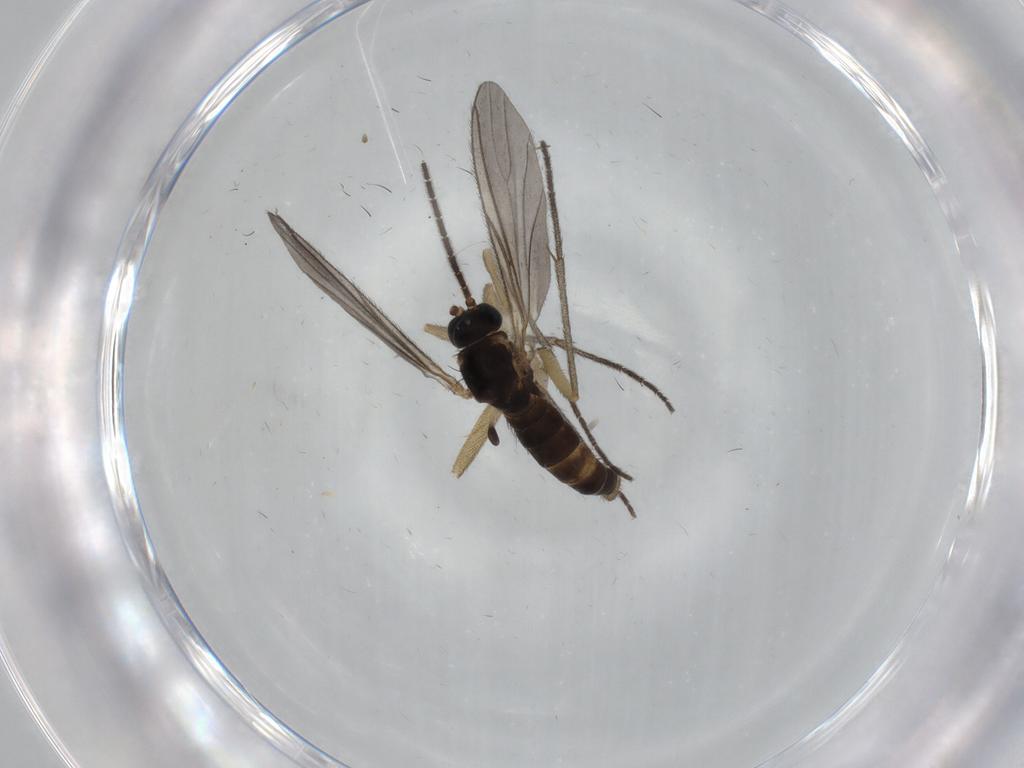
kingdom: Animalia
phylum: Arthropoda
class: Insecta
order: Diptera
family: Sciaridae
